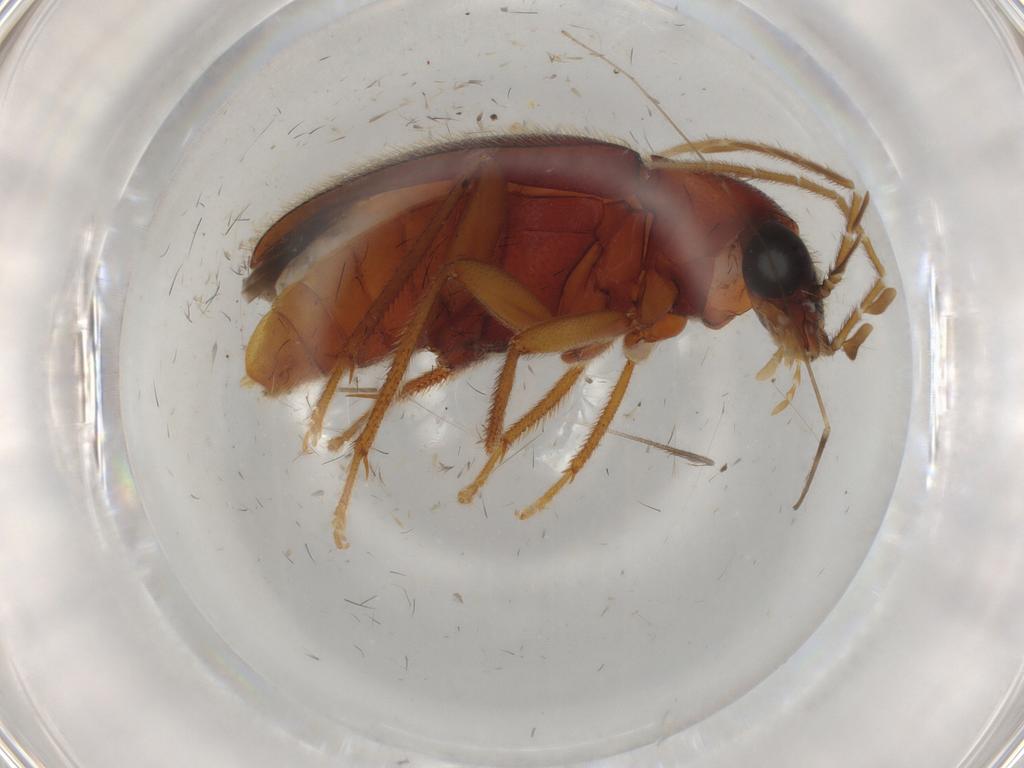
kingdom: Animalia
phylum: Arthropoda
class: Insecta
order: Coleoptera
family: Ptilodactylidae
